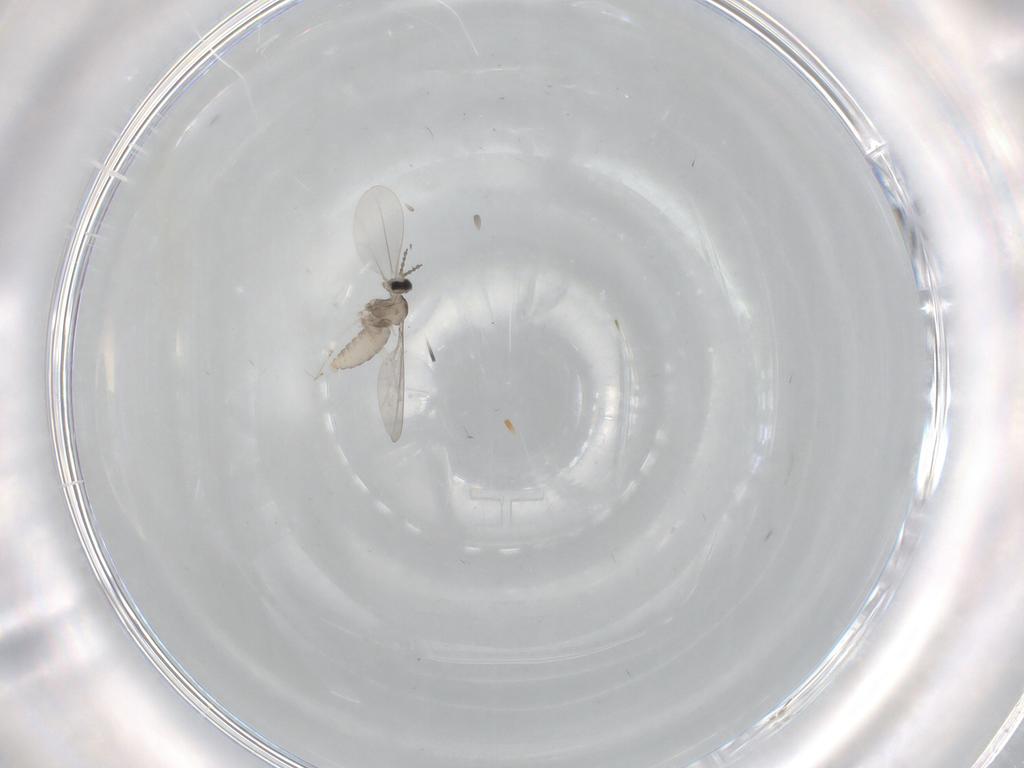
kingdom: Animalia
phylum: Arthropoda
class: Insecta
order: Diptera
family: Cecidomyiidae
